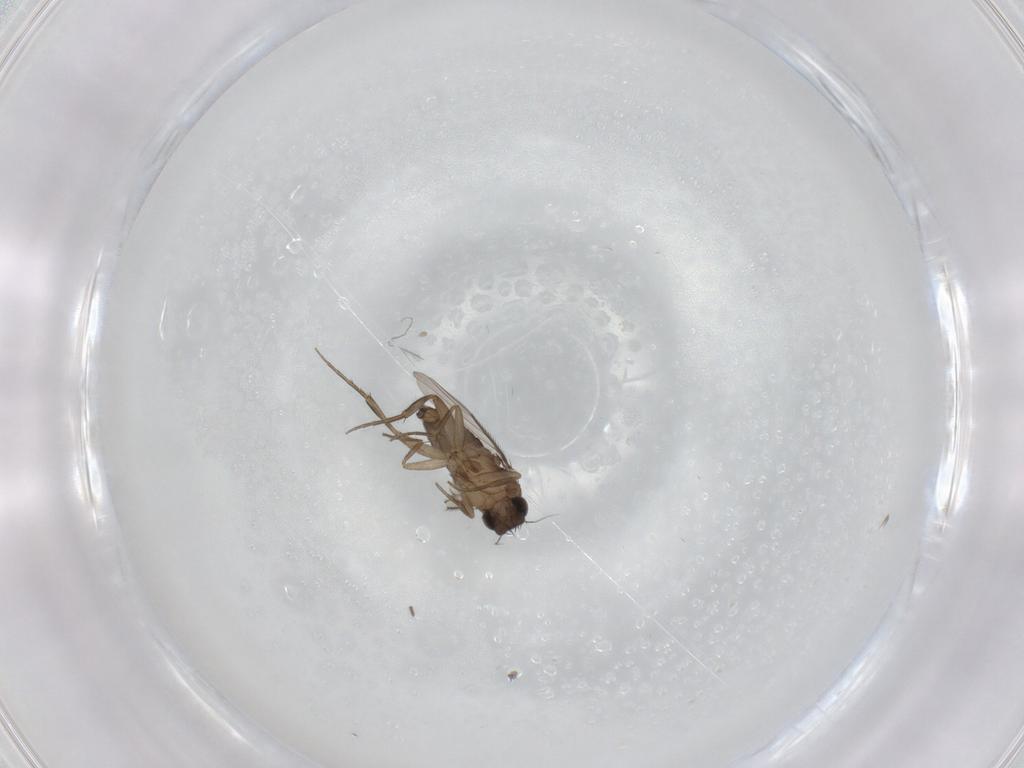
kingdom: Animalia
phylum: Arthropoda
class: Insecta
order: Diptera
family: Phoridae
